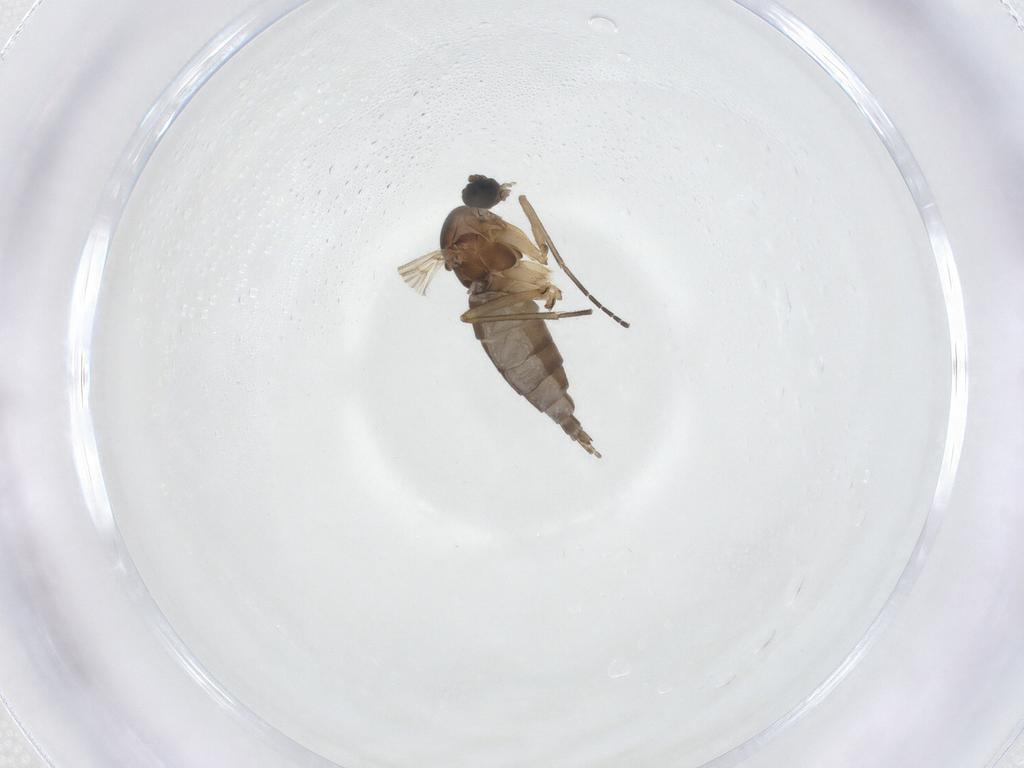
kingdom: Animalia
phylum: Arthropoda
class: Insecta
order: Diptera
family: Sciaridae
